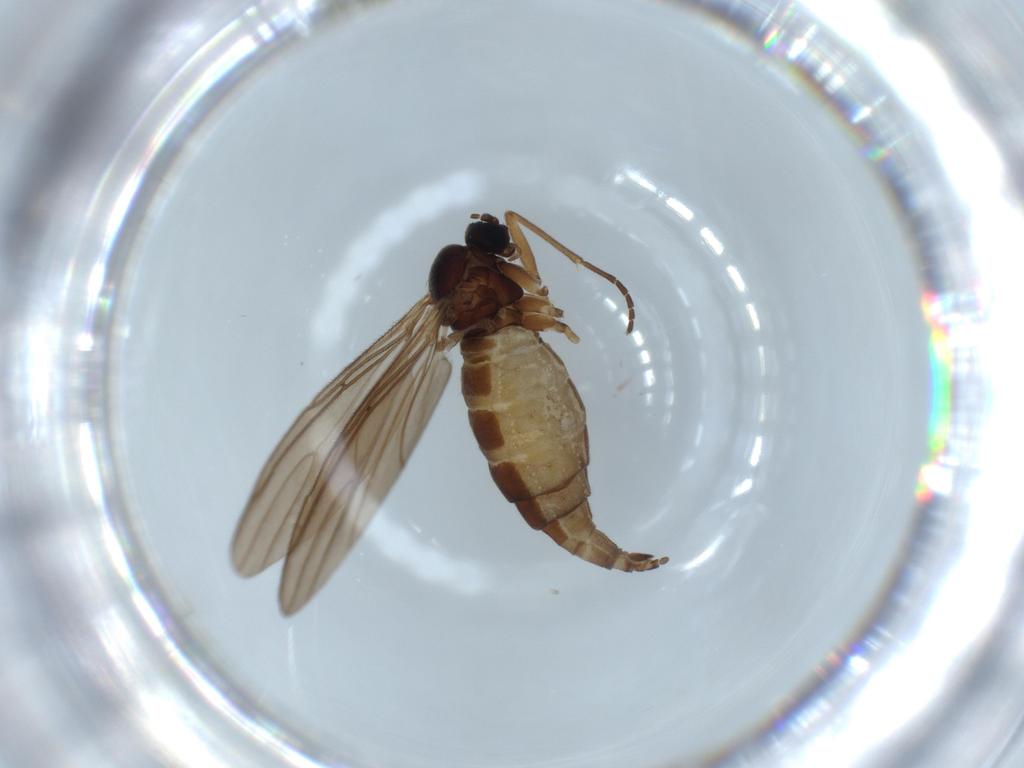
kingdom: Animalia
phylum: Arthropoda
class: Insecta
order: Diptera
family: Sciaridae
